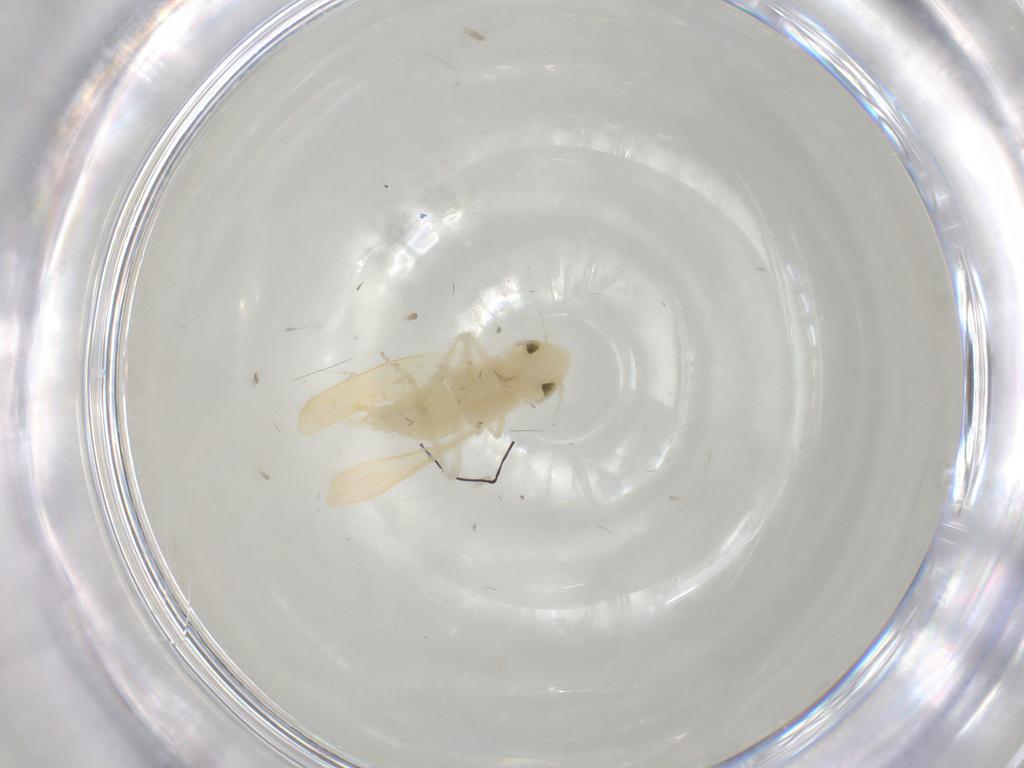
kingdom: Animalia
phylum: Arthropoda
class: Insecta
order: Hemiptera
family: Cicadellidae
